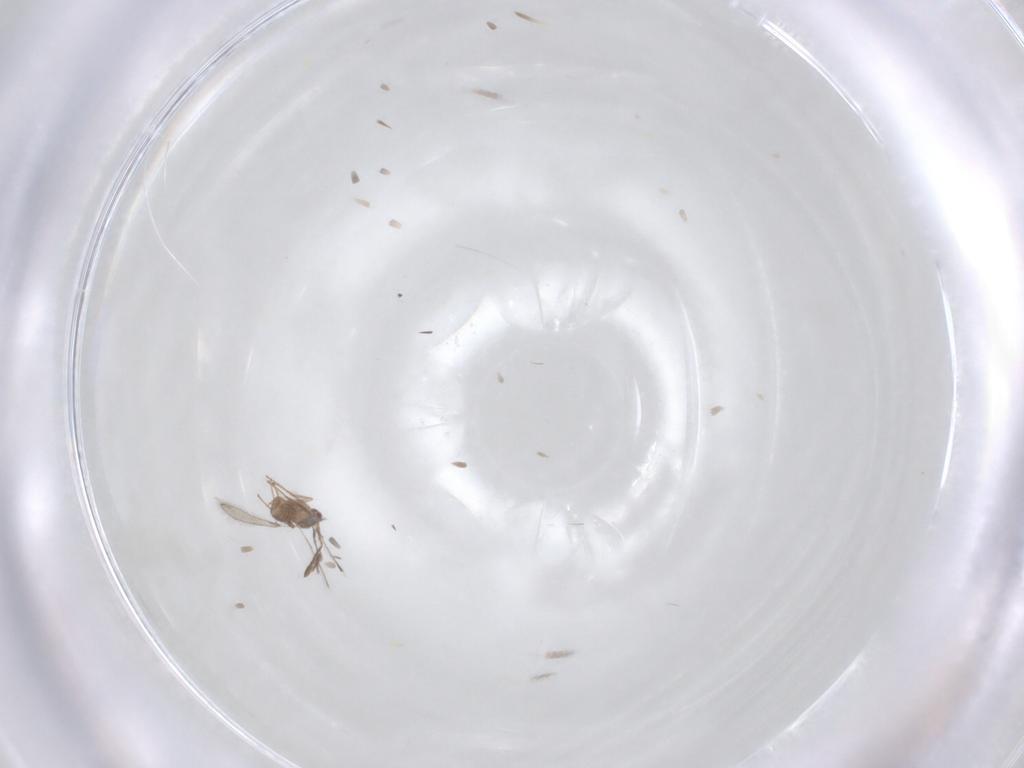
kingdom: Animalia
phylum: Arthropoda
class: Insecta
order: Hymenoptera
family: Mymaridae
